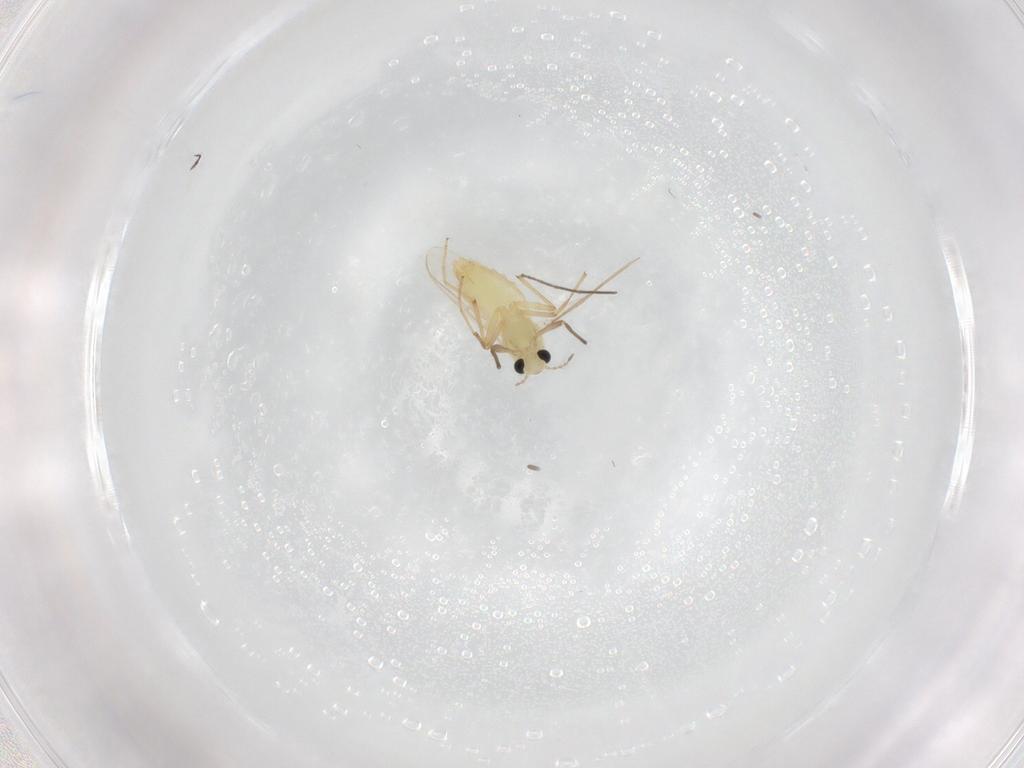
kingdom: Animalia
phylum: Arthropoda
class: Insecta
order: Diptera
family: Chironomidae
